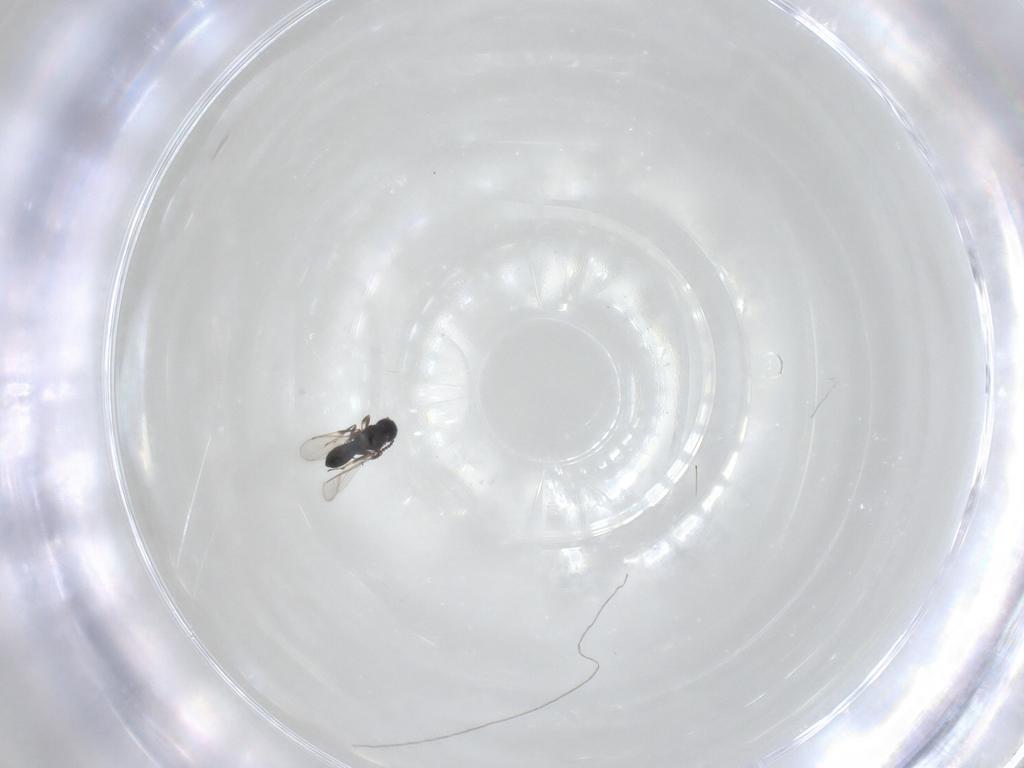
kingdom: Animalia
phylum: Arthropoda
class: Insecta
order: Hymenoptera
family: Scelionidae
